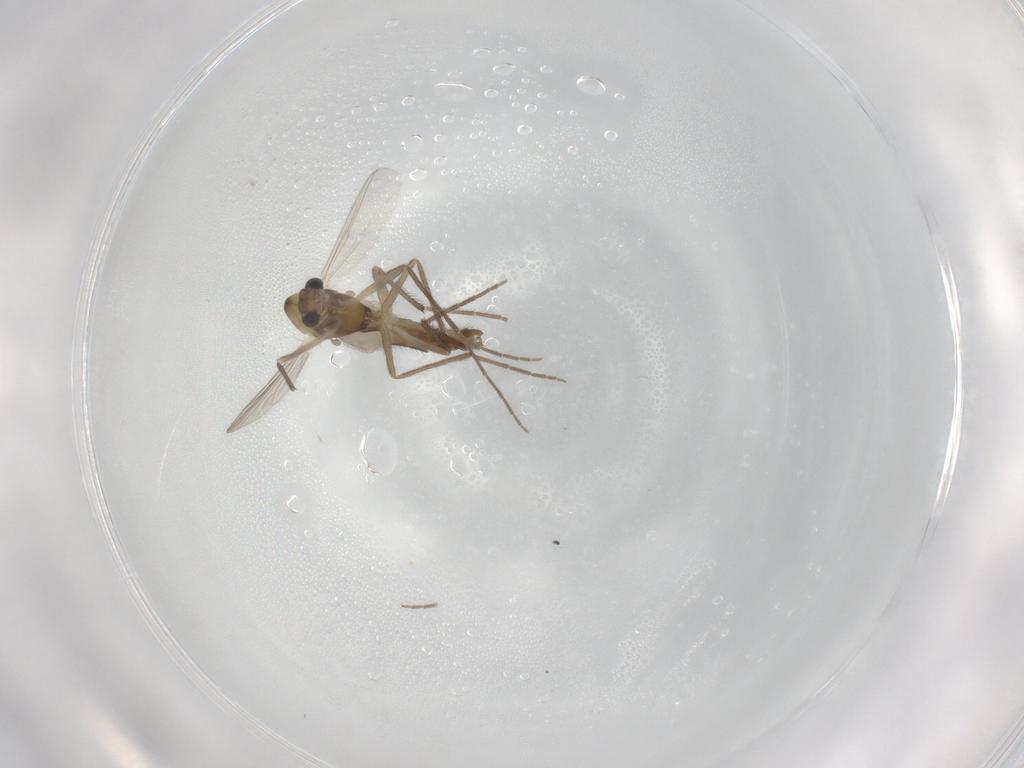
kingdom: Animalia
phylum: Arthropoda
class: Insecta
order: Diptera
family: Chironomidae
